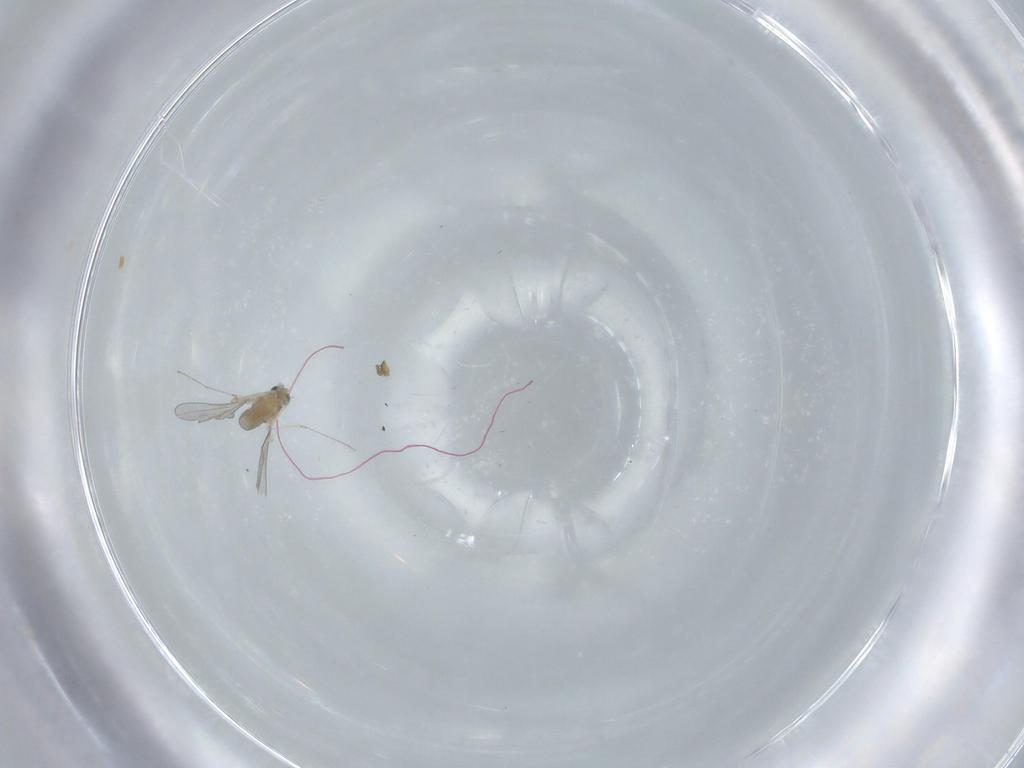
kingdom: Animalia
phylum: Arthropoda
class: Insecta
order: Diptera
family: Cecidomyiidae
